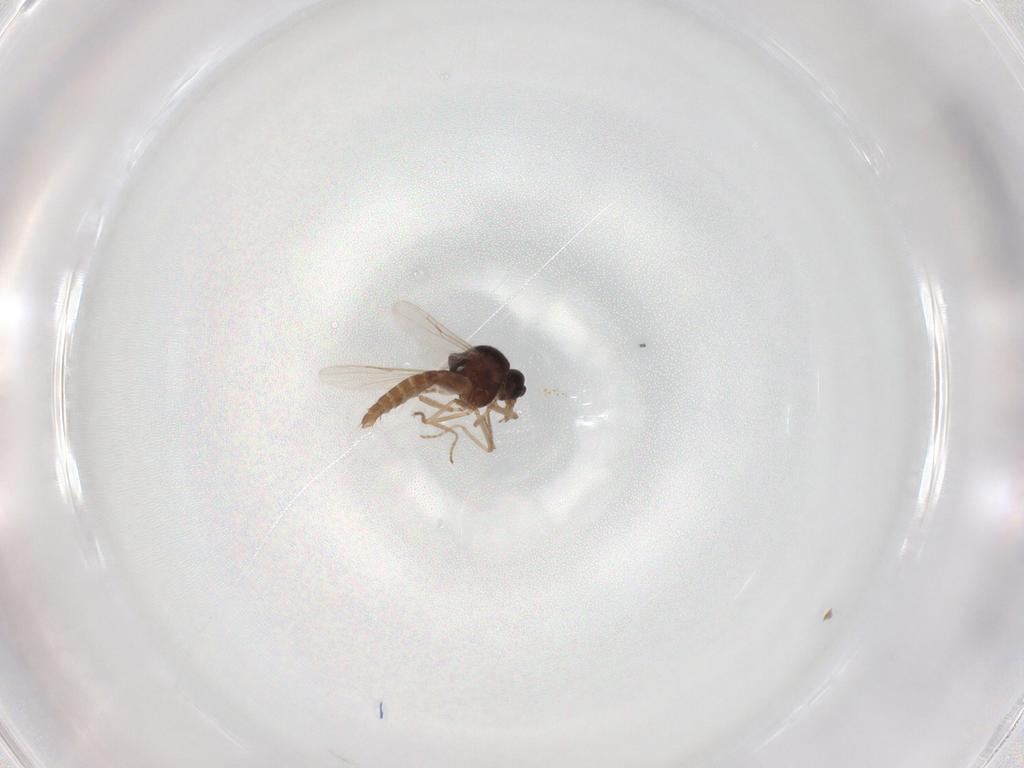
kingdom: Animalia
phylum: Arthropoda
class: Insecta
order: Diptera
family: Ceratopogonidae
